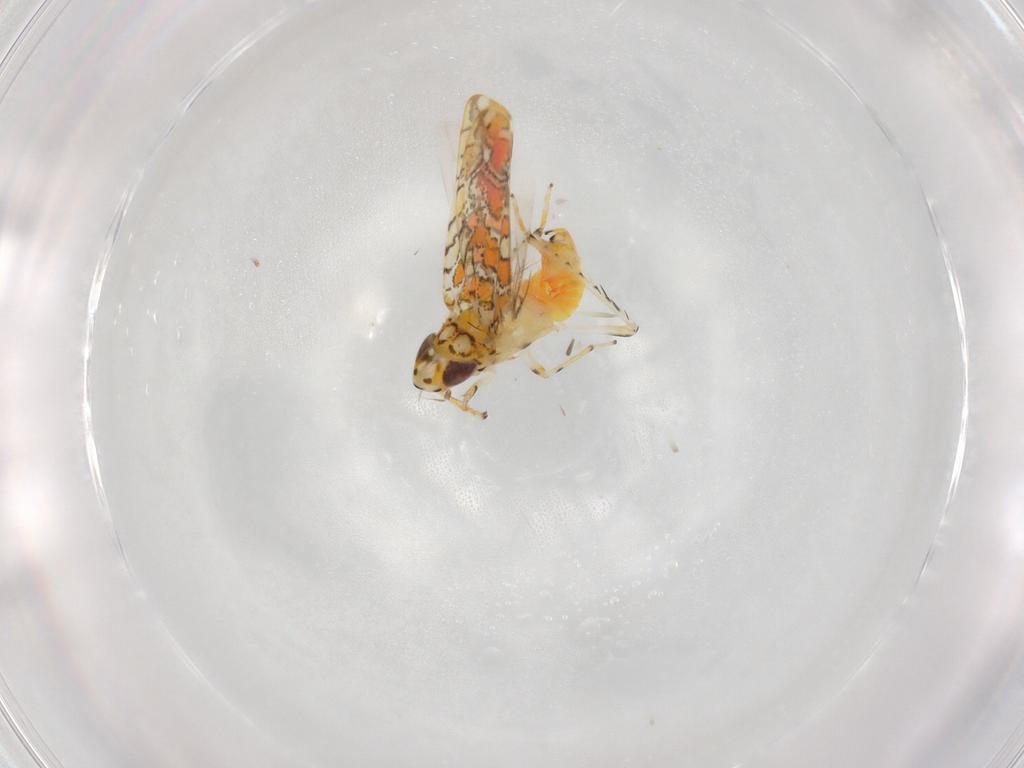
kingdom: Animalia
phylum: Arthropoda
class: Insecta
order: Hemiptera
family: Cicadellidae
